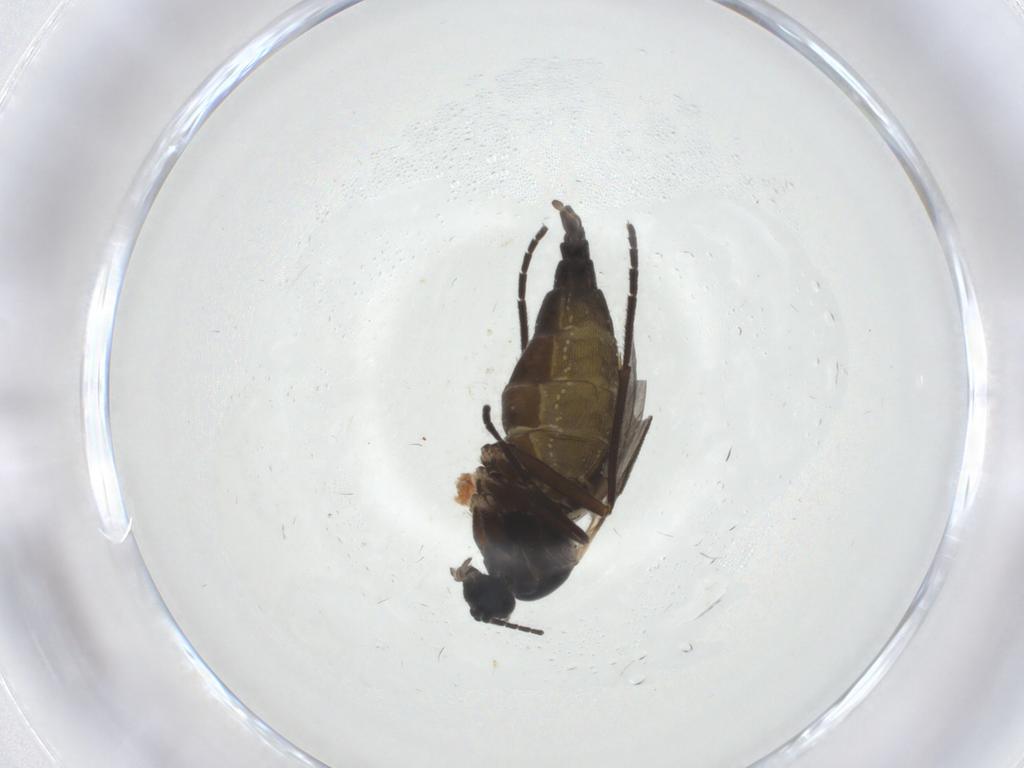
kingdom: Animalia
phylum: Arthropoda
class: Insecta
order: Diptera
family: Sciaridae
